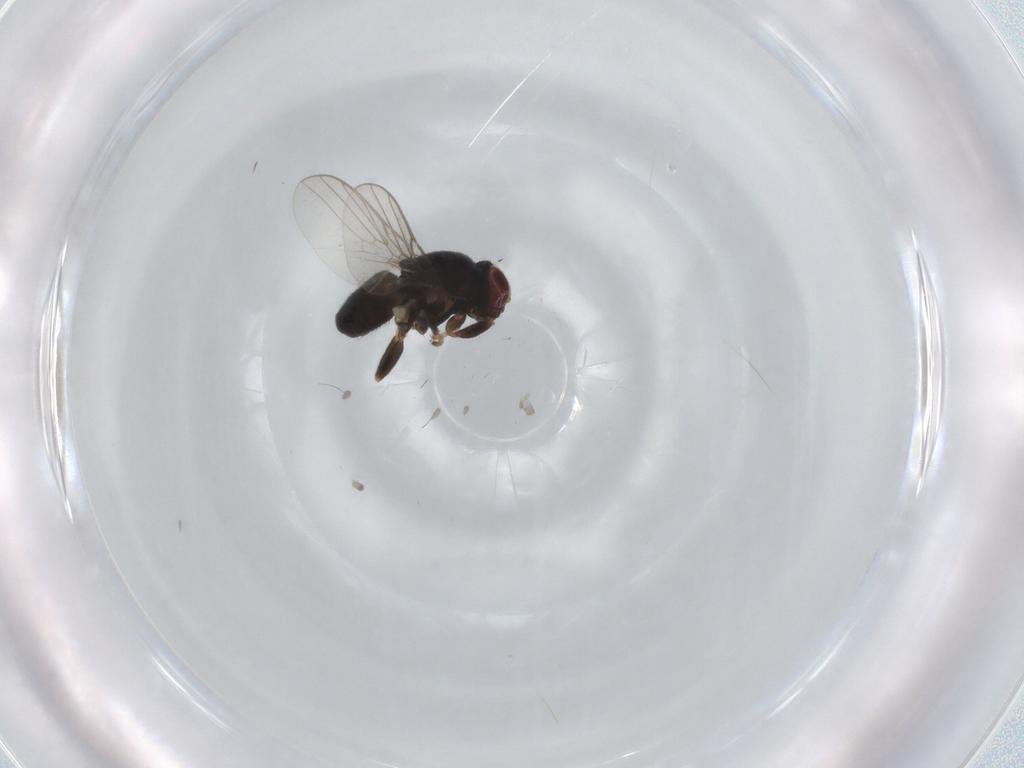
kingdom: Animalia
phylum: Arthropoda
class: Insecta
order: Diptera
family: Chloropidae
